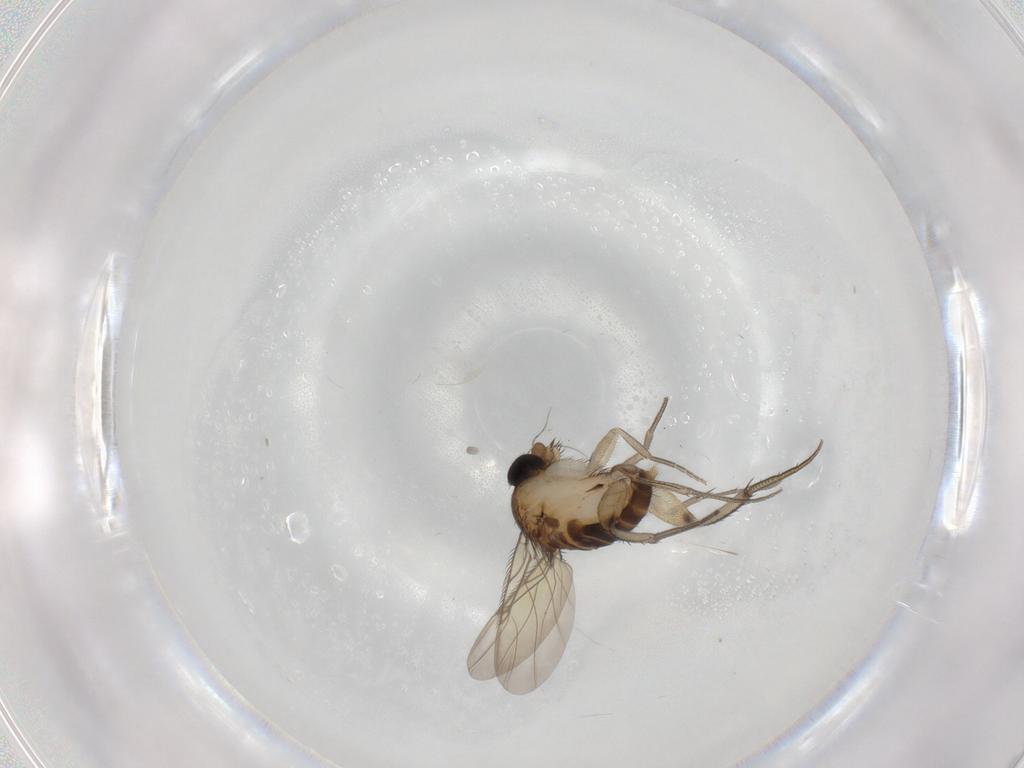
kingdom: Animalia
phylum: Arthropoda
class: Insecta
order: Diptera
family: Phoridae
